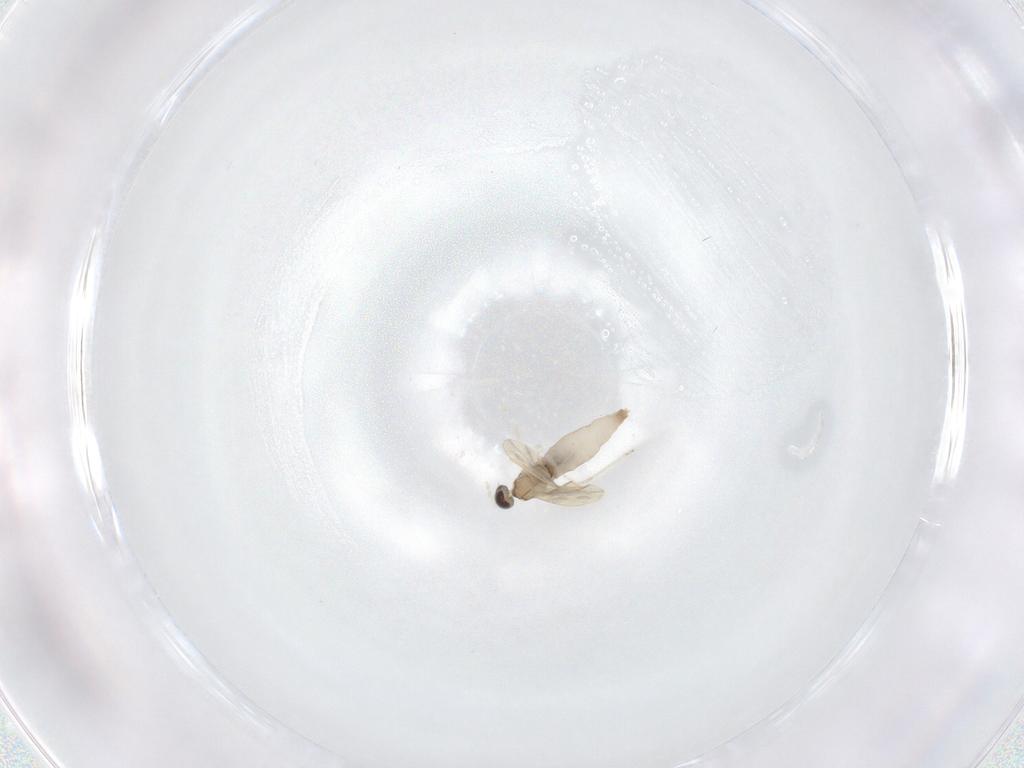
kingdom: Animalia
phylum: Arthropoda
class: Insecta
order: Diptera
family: Cecidomyiidae
